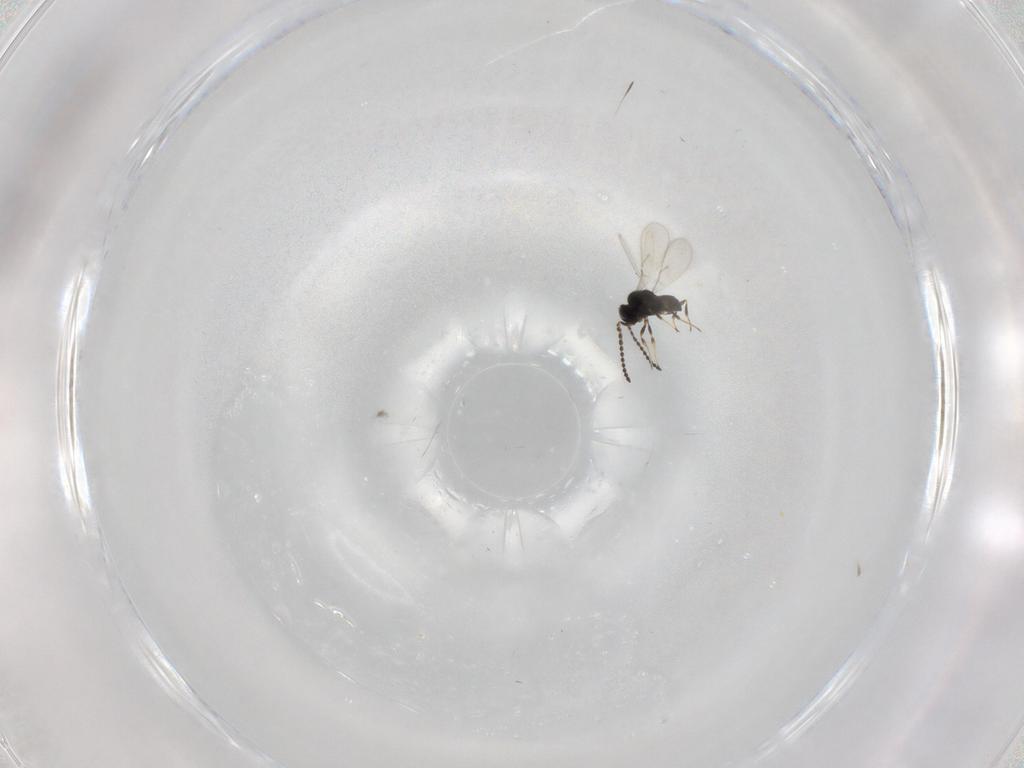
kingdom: Animalia
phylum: Arthropoda
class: Insecta
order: Hymenoptera
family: Scelionidae
